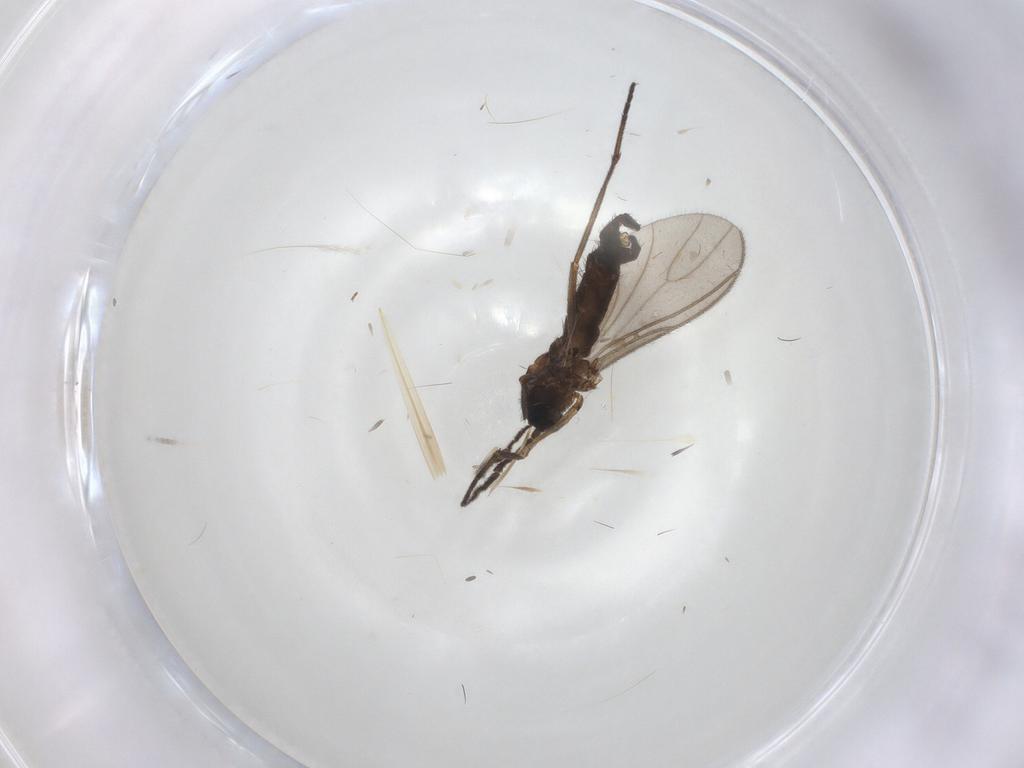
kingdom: Animalia
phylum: Arthropoda
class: Insecta
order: Diptera
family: Sciaridae
